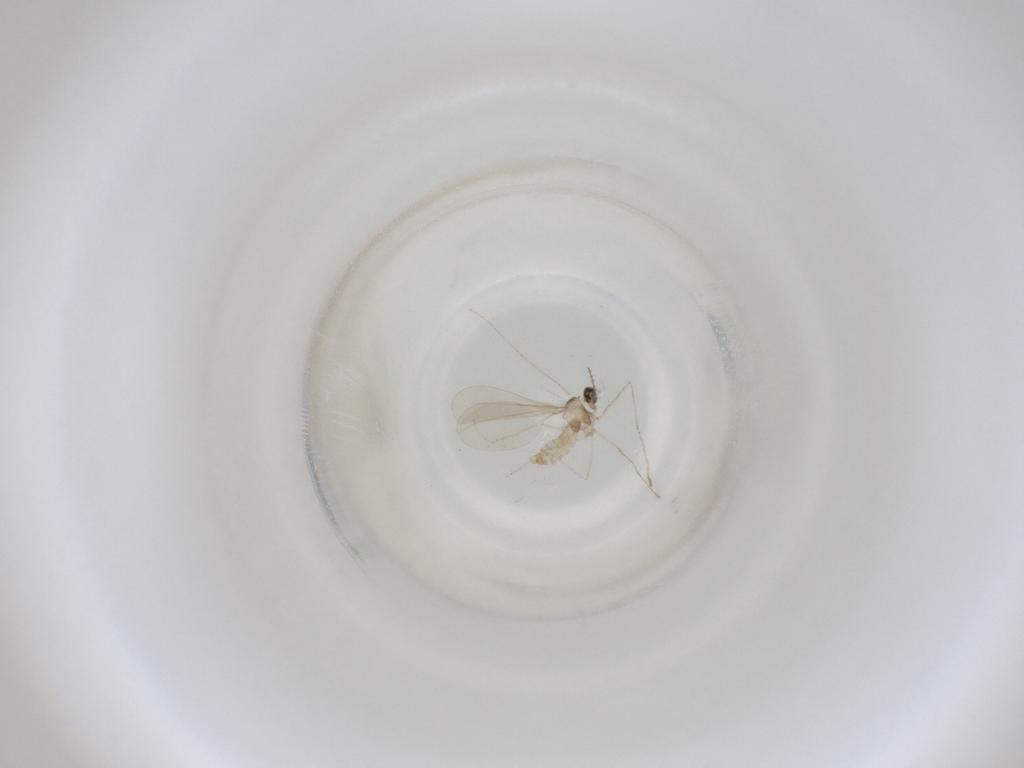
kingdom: Animalia
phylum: Arthropoda
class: Insecta
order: Diptera
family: Cecidomyiidae
